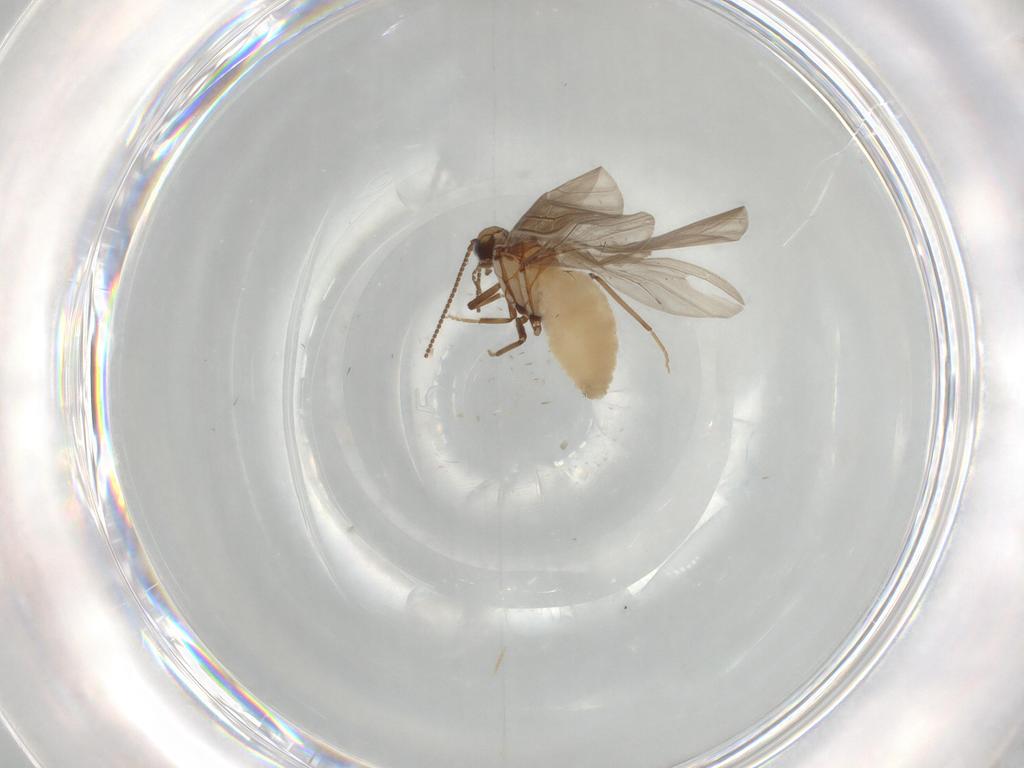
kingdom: Animalia
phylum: Arthropoda
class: Insecta
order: Neuroptera
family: Coniopterygidae
